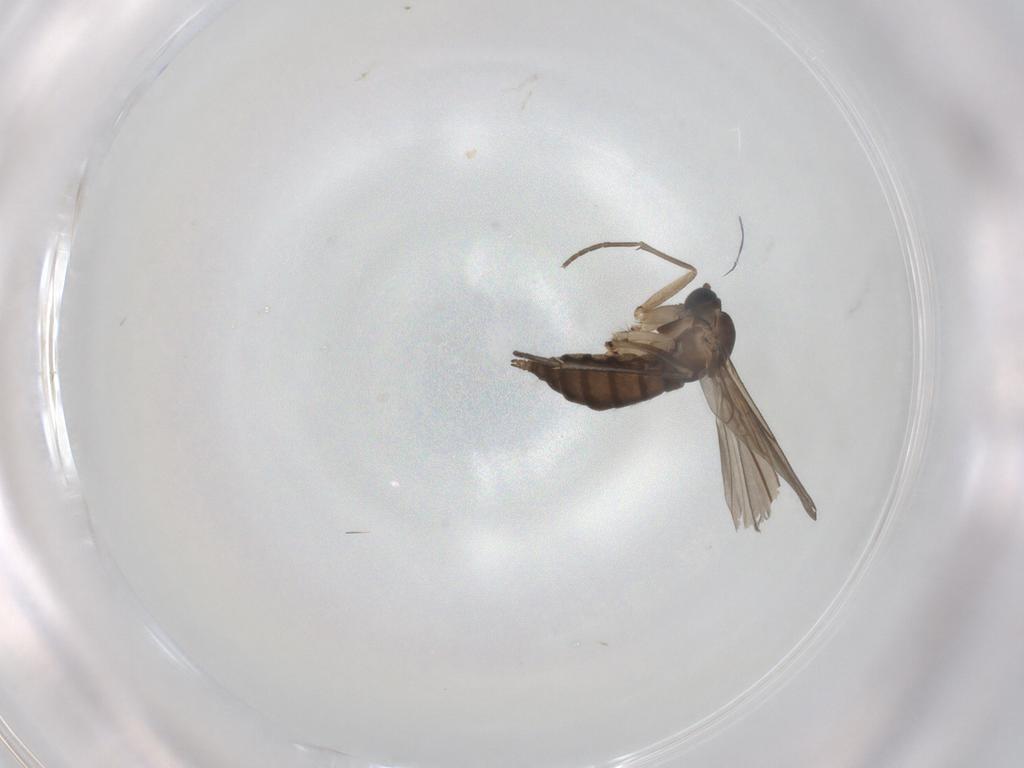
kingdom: Animalia
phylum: Arthropoda
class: Insecta
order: Diptera
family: Sciaridae
